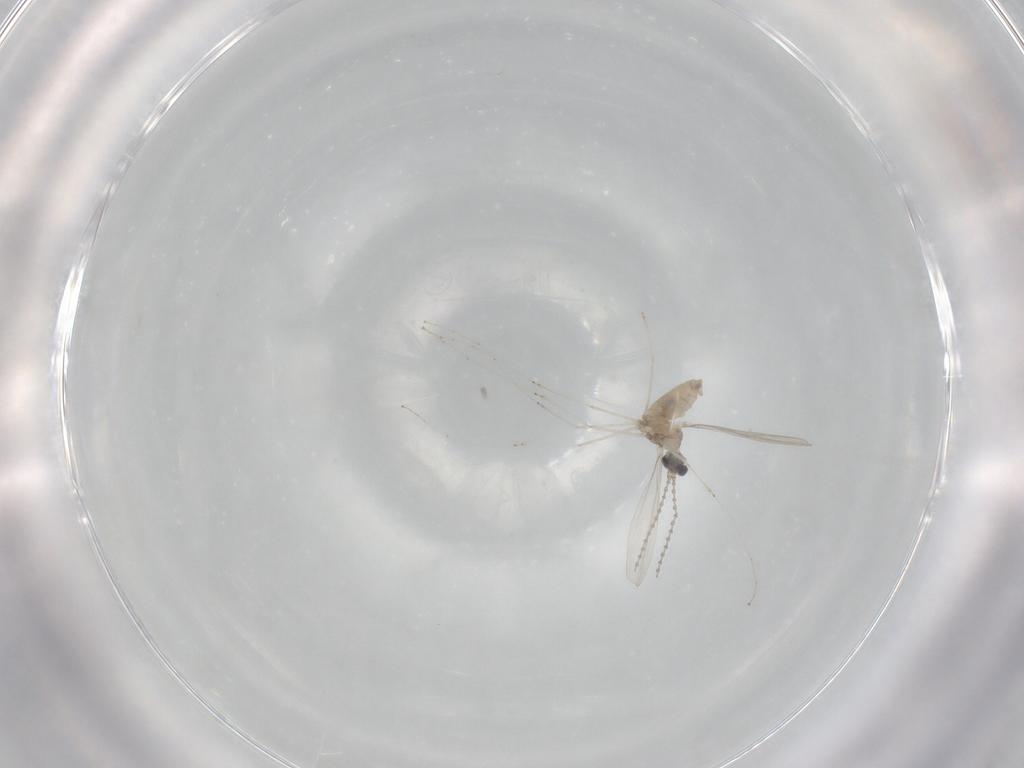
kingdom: Animalia
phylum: Arthropoda
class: Insecta
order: Diptera
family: Cecidomyiidae
